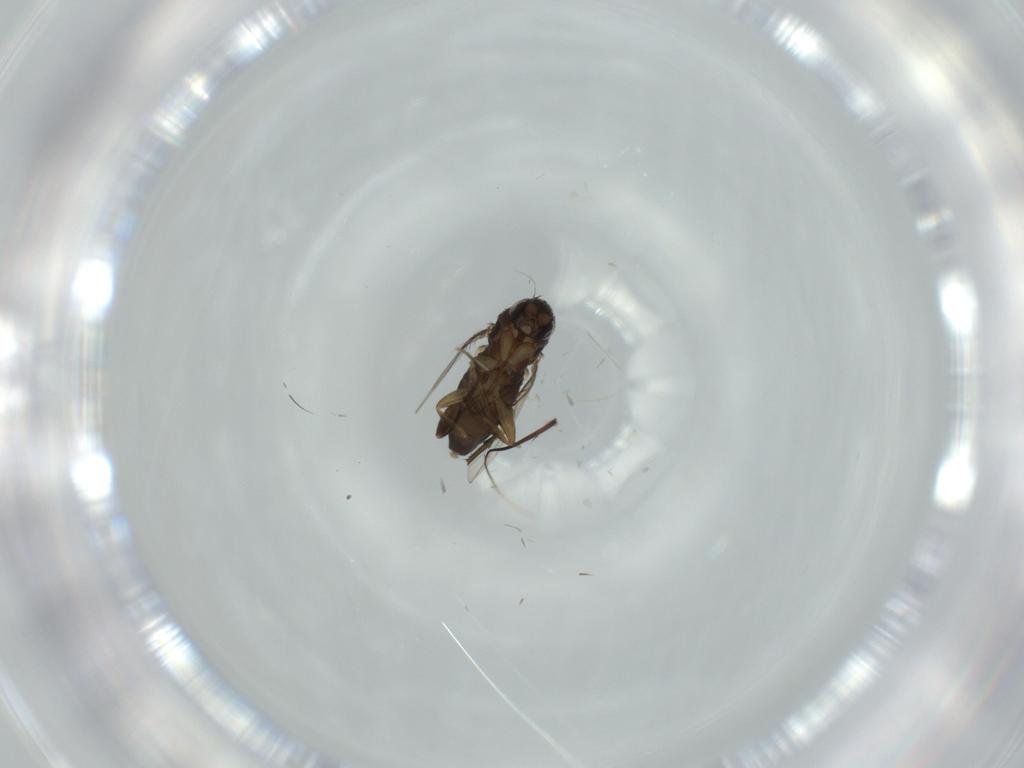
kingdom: Animalia
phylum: Arthropoda
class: Insecta
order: Diptera
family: Phoridae
